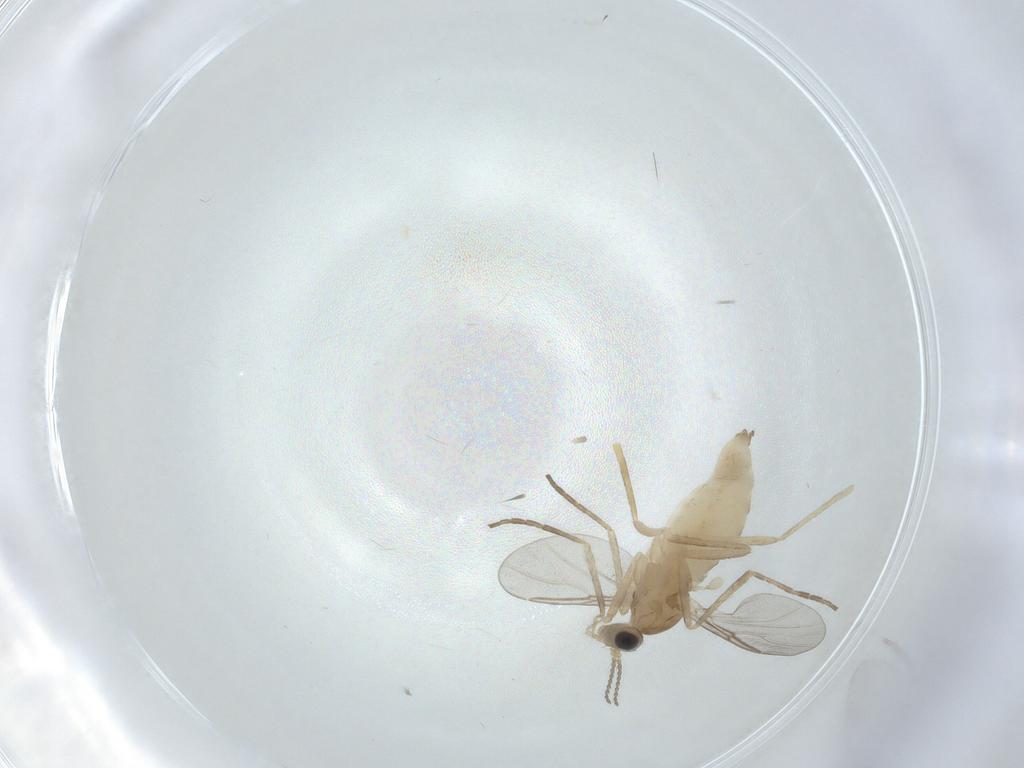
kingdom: Animalia
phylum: Arthropoda
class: Insecta
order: Diptera
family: Cecidomyiidae
